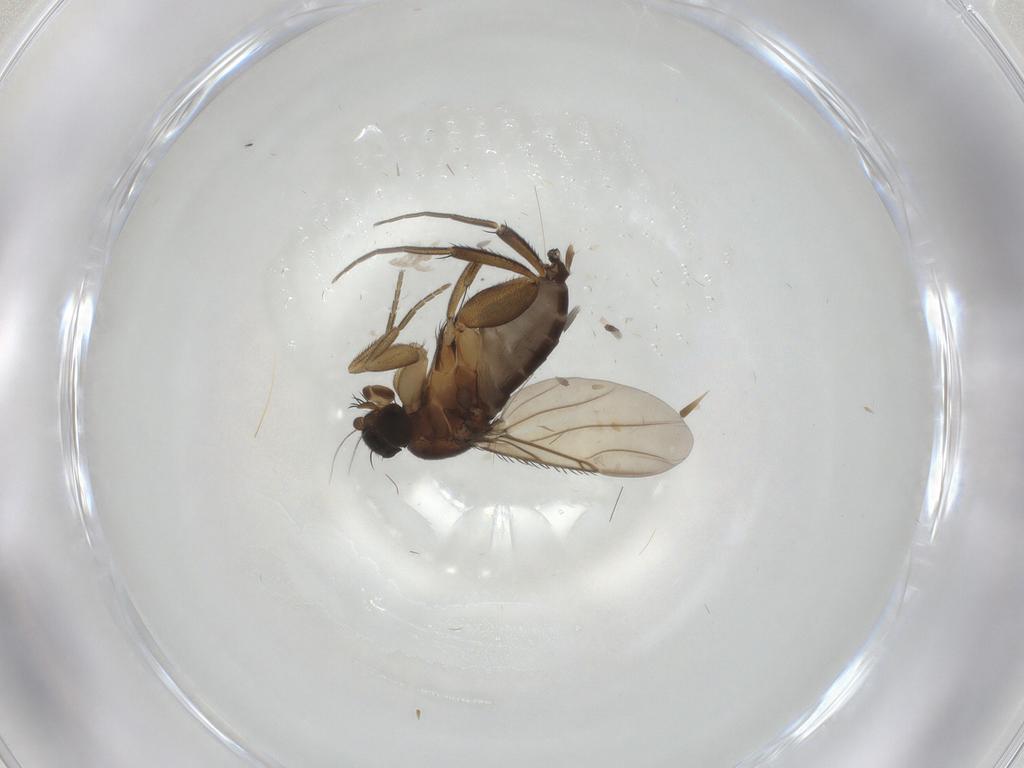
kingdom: Animalia
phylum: Arthropoda
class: Insecta
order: Diptera
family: Phoridae
